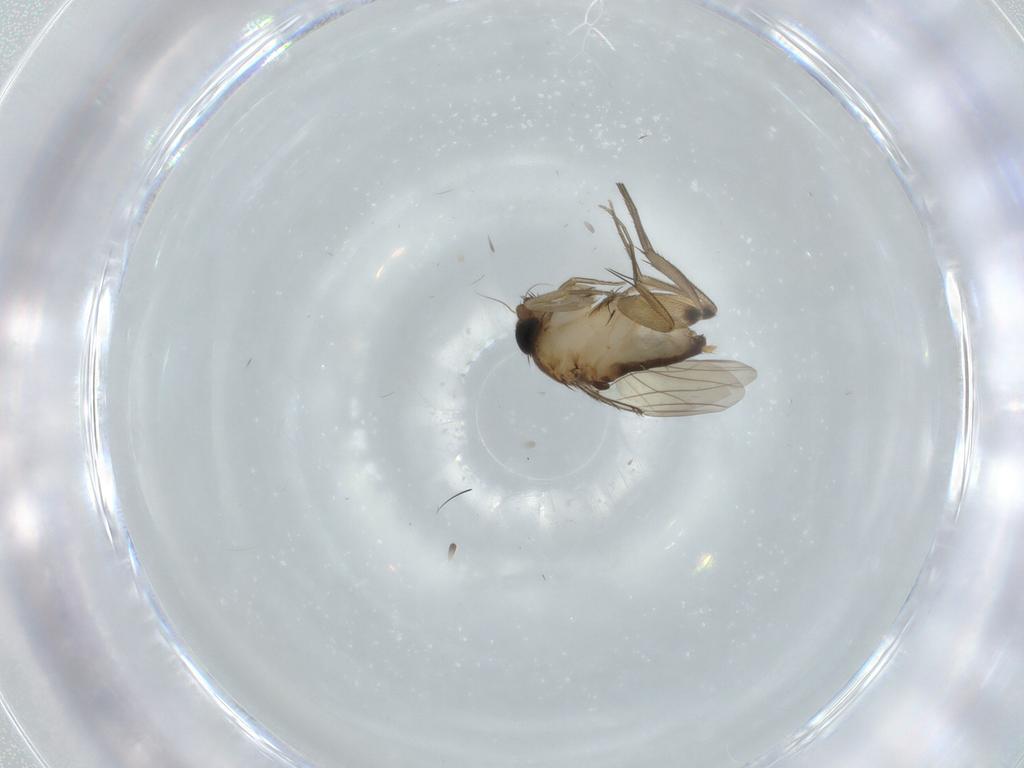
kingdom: Animalia
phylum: Arthropoda
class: Insecta
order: Diptera
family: Phoridae
